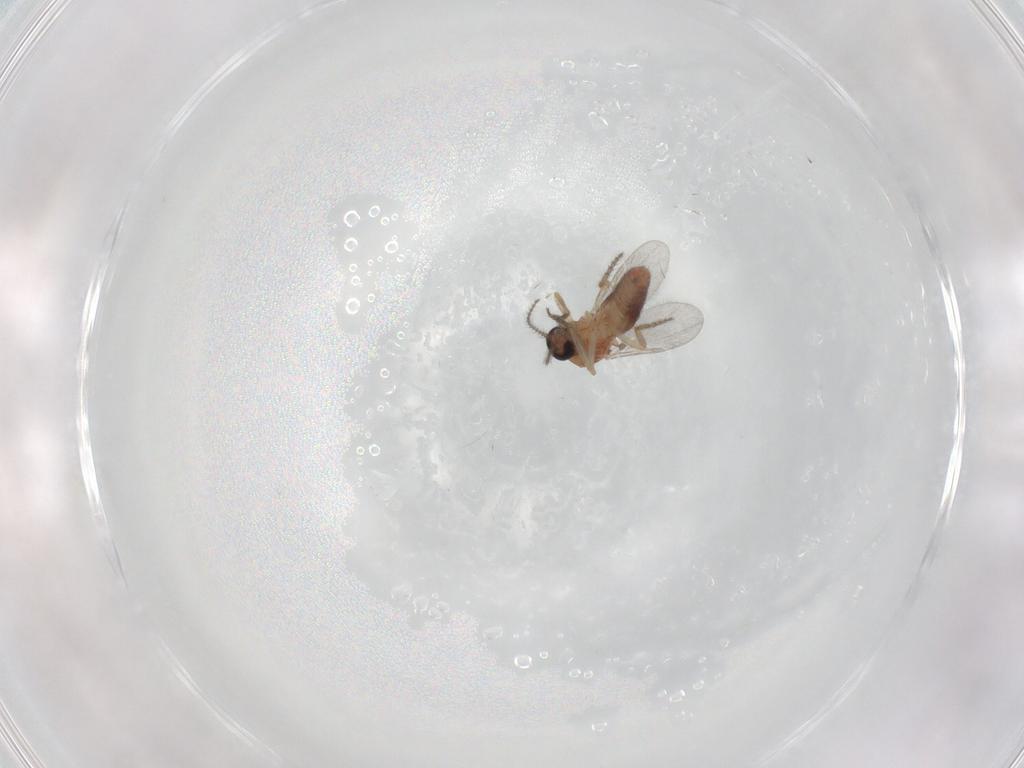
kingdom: Animalia
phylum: Arthropoda
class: Insecta
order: Diptera
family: Ceratopogonidae
